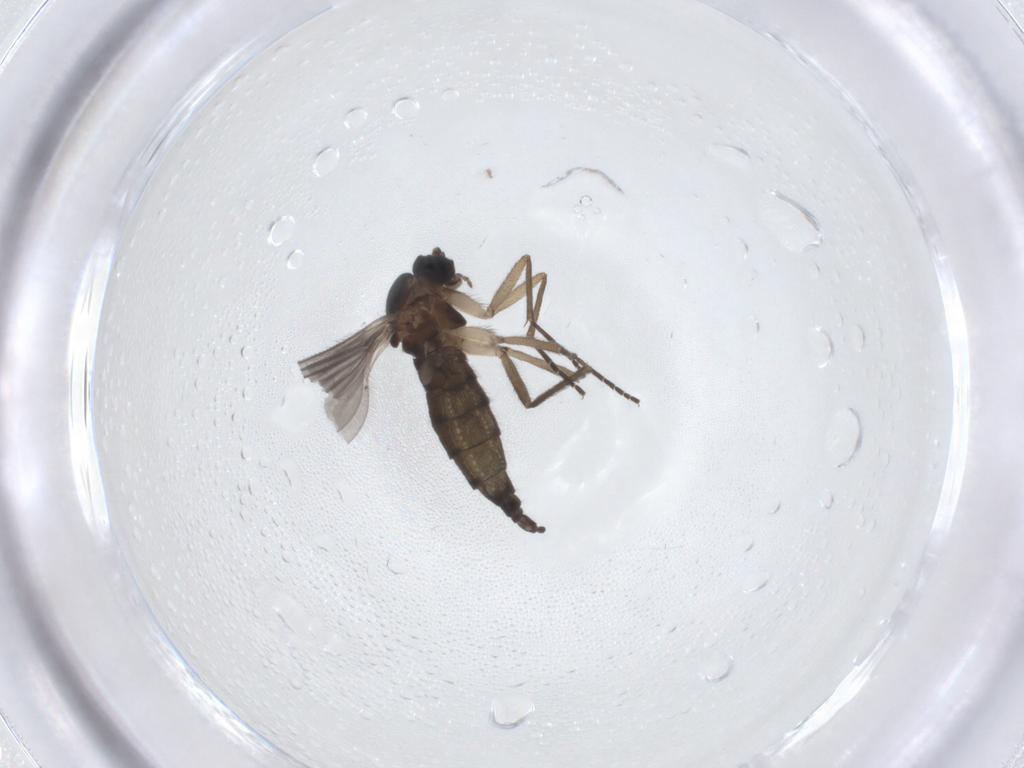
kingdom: Animalia
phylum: Arthropoda
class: Insecta
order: Diptera
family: Sciaridae
